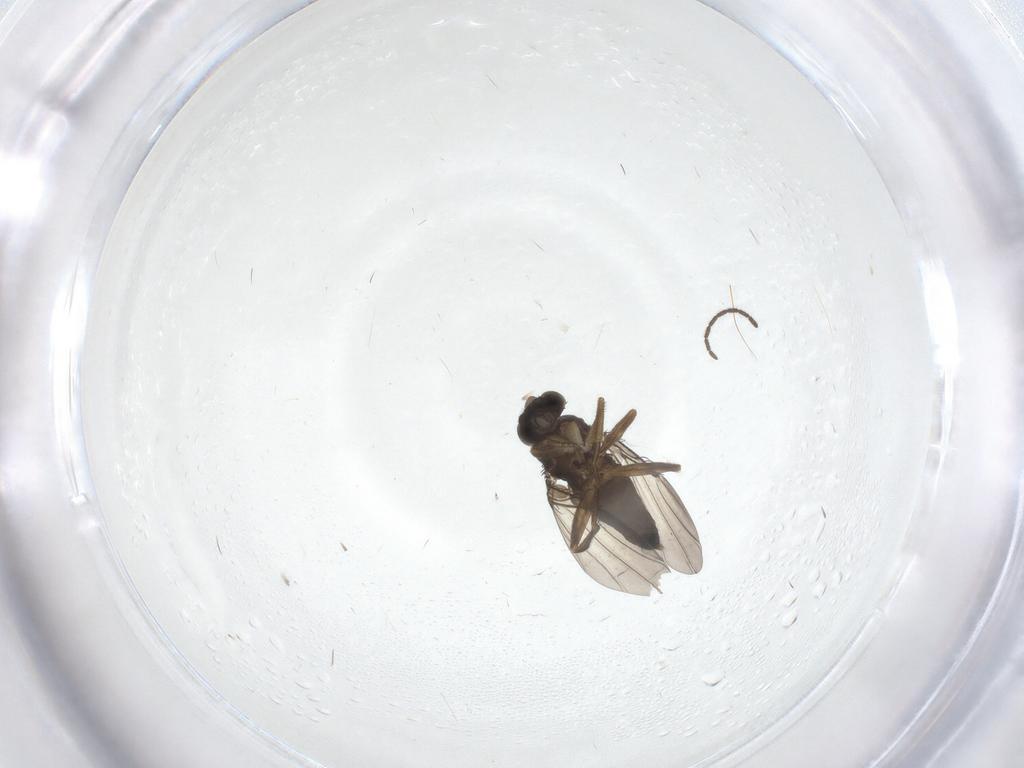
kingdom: Animalia
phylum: Arthropoda
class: Insecta
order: Diptera
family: Phoridae
